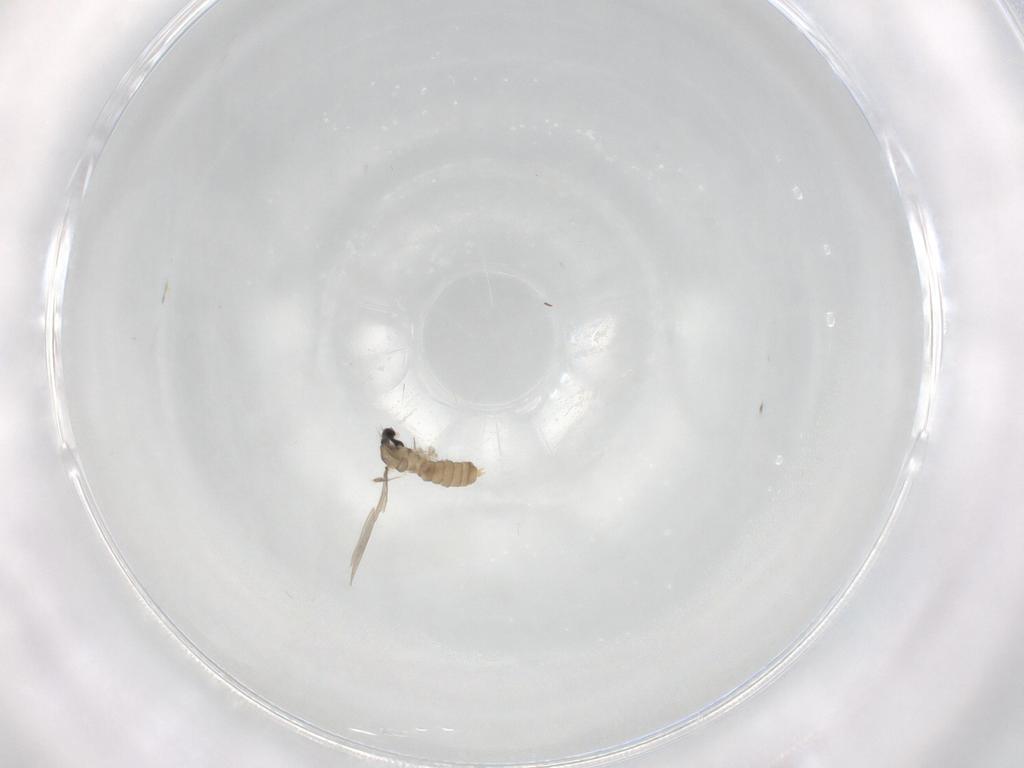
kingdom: Animalia
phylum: Arthropoda
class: Insecta
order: Diptera
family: Cecidomyiidae
